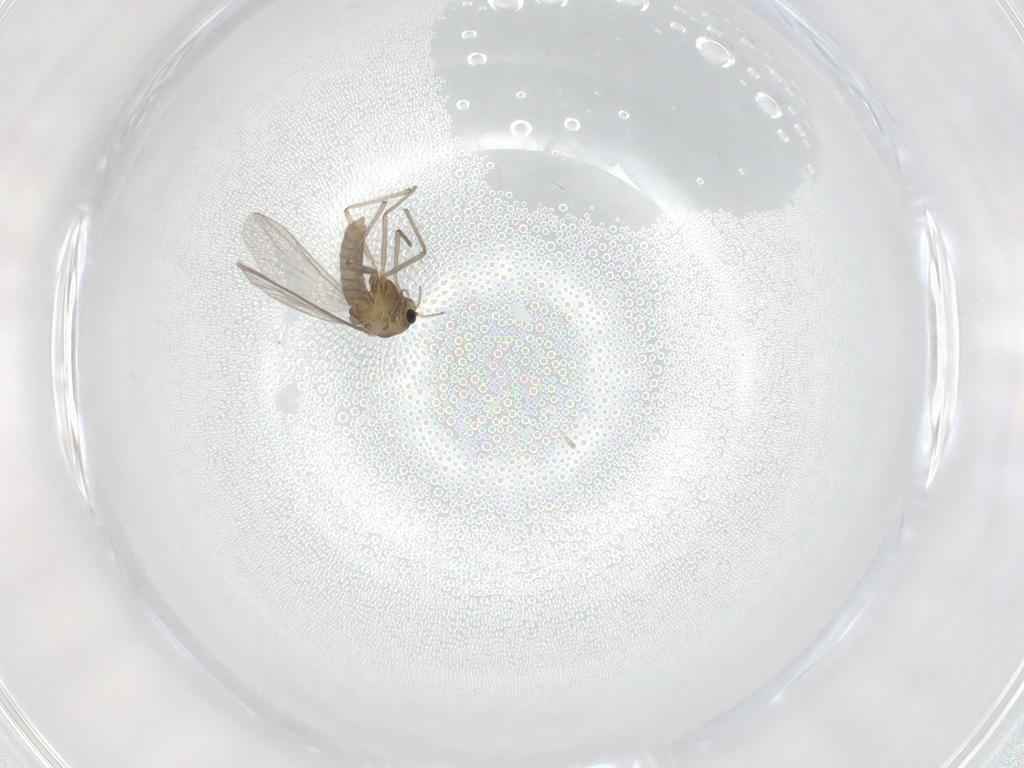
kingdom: Animalia
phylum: Arthropoda
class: Insecta
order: Diptera
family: Chironomidae
